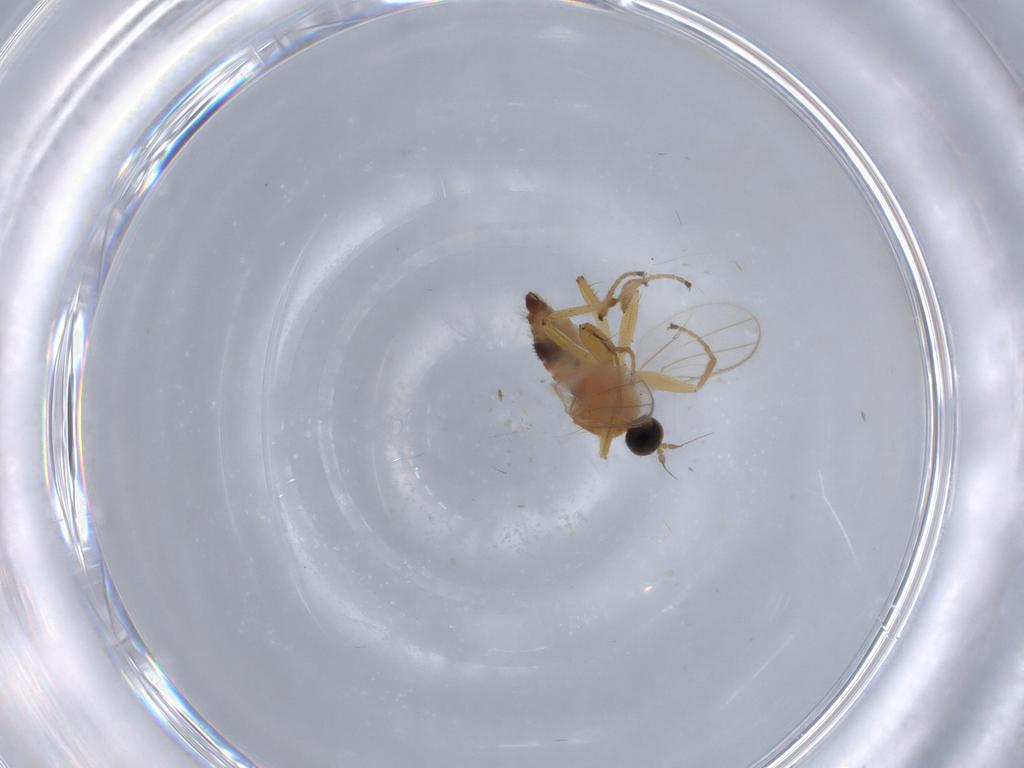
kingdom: Animalia
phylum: Arthropoda
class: Insecta
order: Diptera
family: Hybotidae
